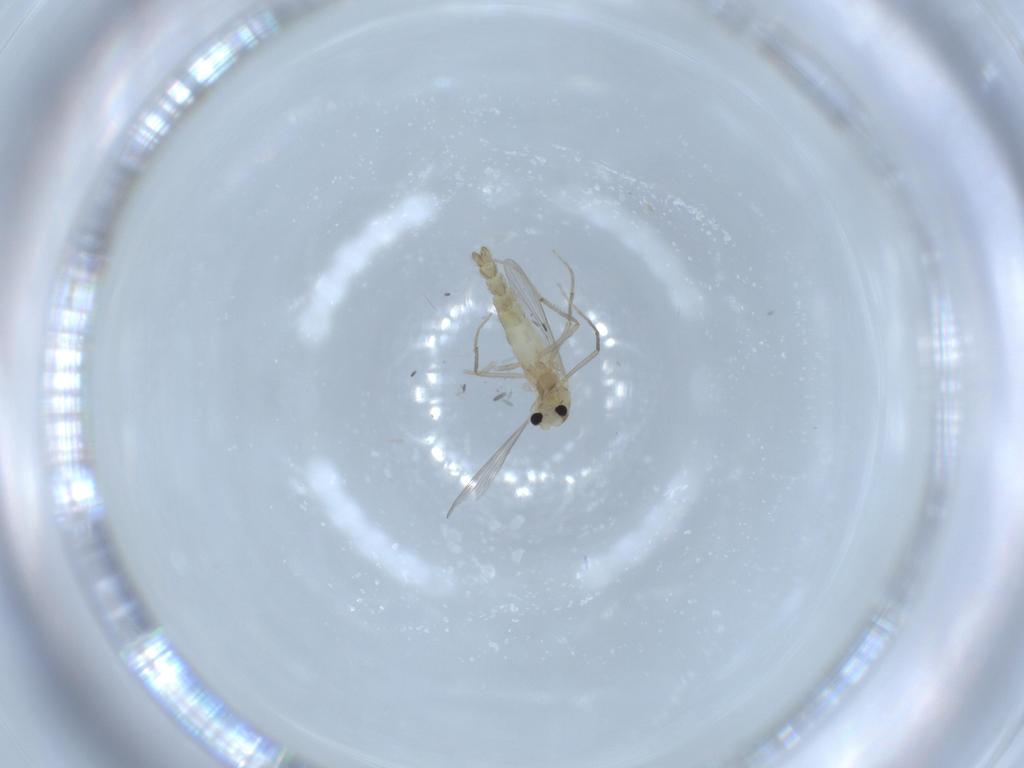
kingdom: Animalia
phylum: Arthropoda
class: Insecta
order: Diptera
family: Chironomidae
